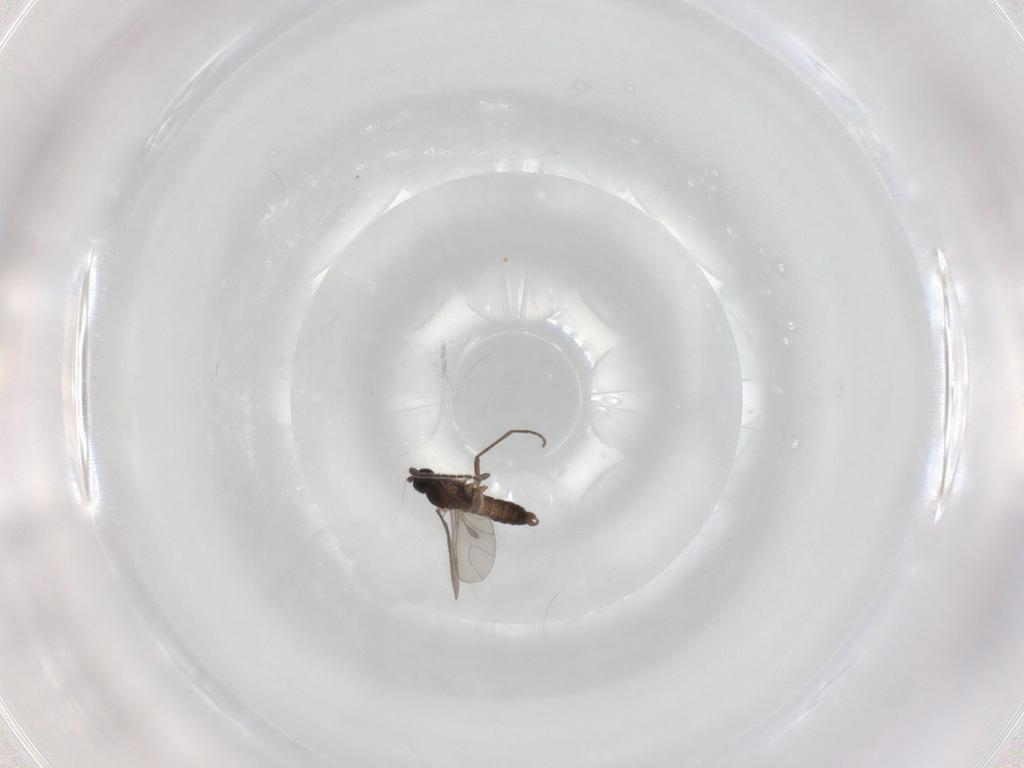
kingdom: Animalia
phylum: Arthropoda
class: Insecta
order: Diptera
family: Sciaridae
